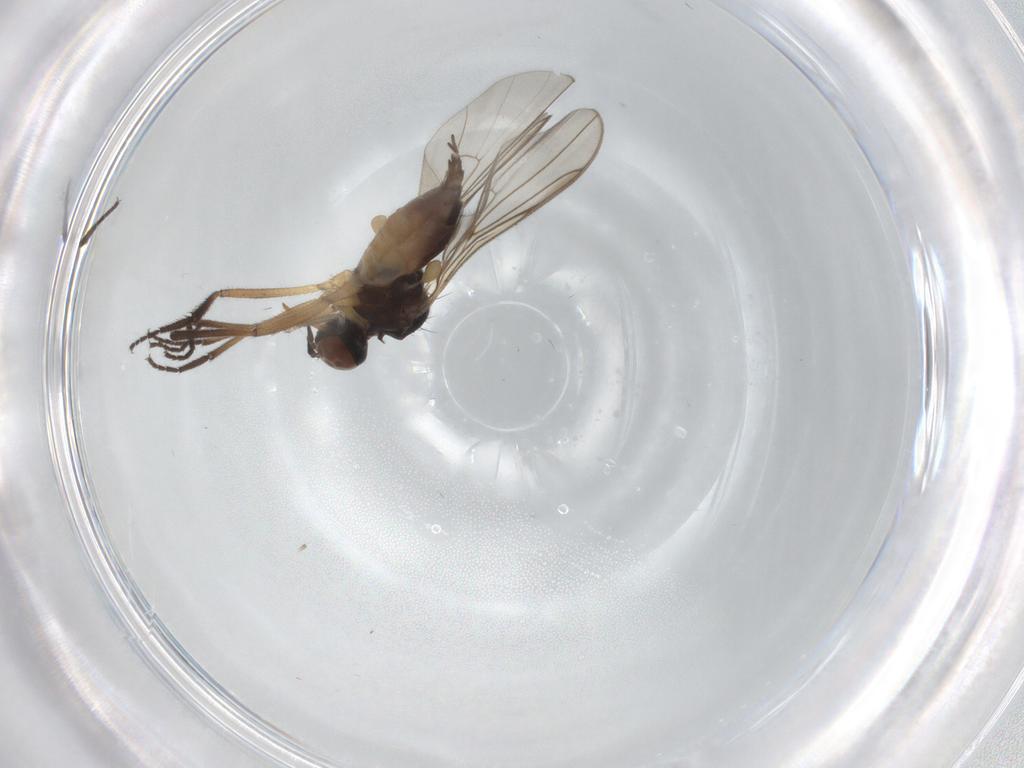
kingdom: Animalia
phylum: Arthropoda
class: Insecta
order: Diptera
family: Empididae
